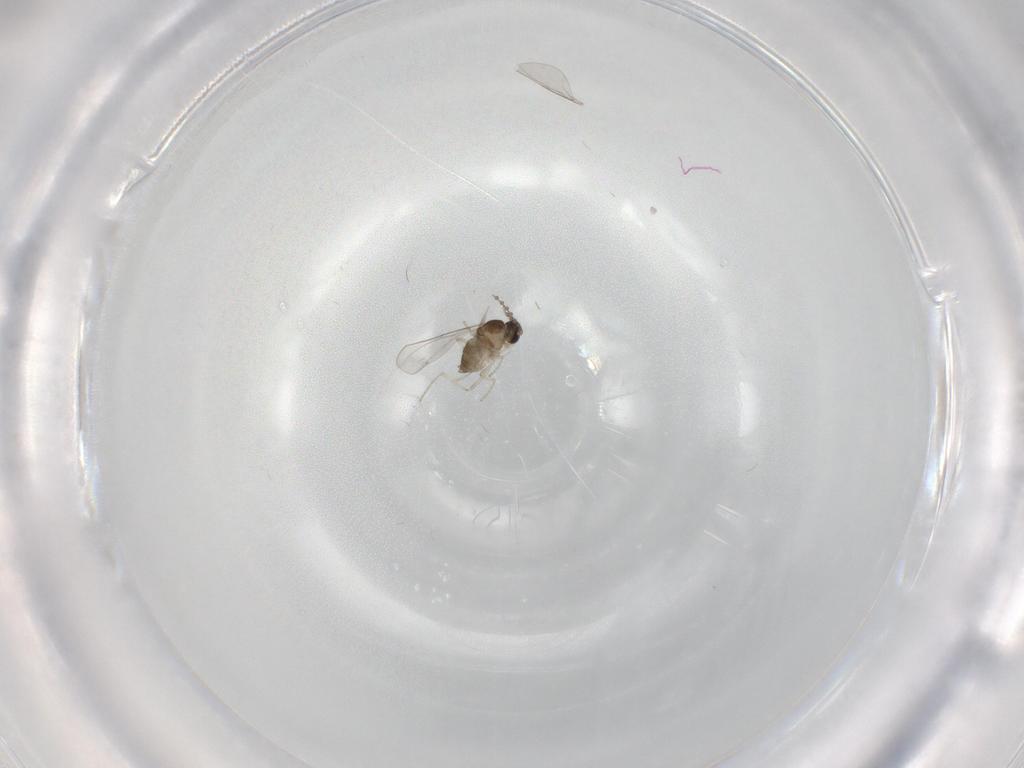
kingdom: Animalia
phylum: Arthropoda
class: Insecta
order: Diptera
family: Cecidomyiidae
